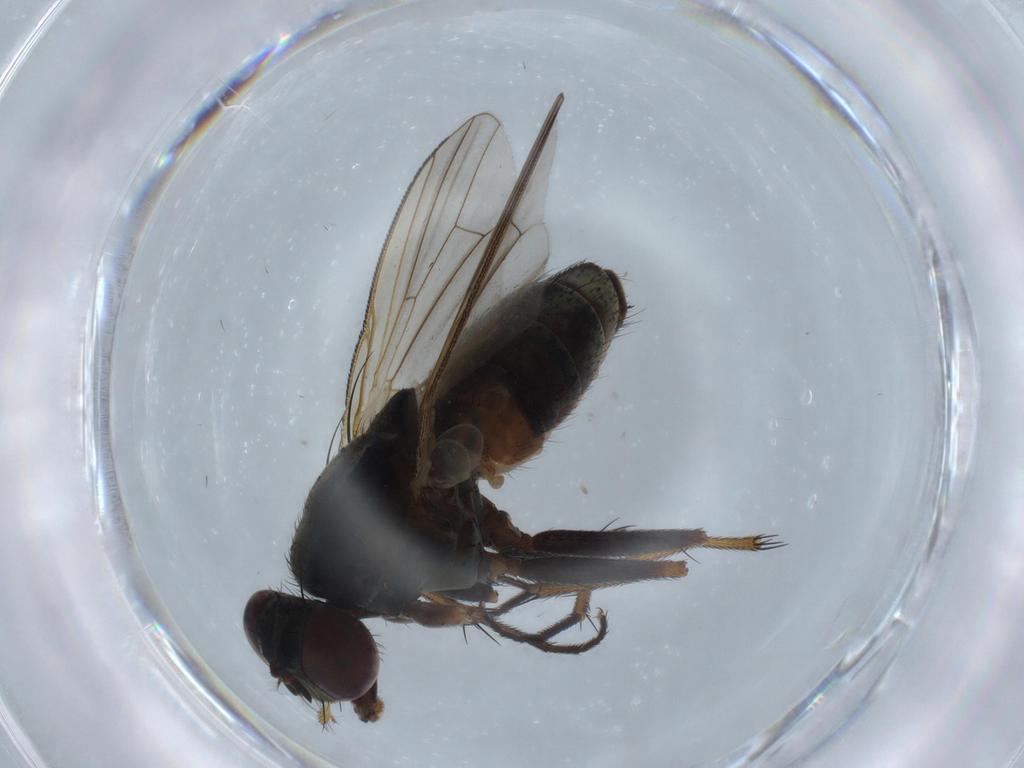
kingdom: Animalia
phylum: Arthropoda
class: Insecta
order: Diptera
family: Muscidae
